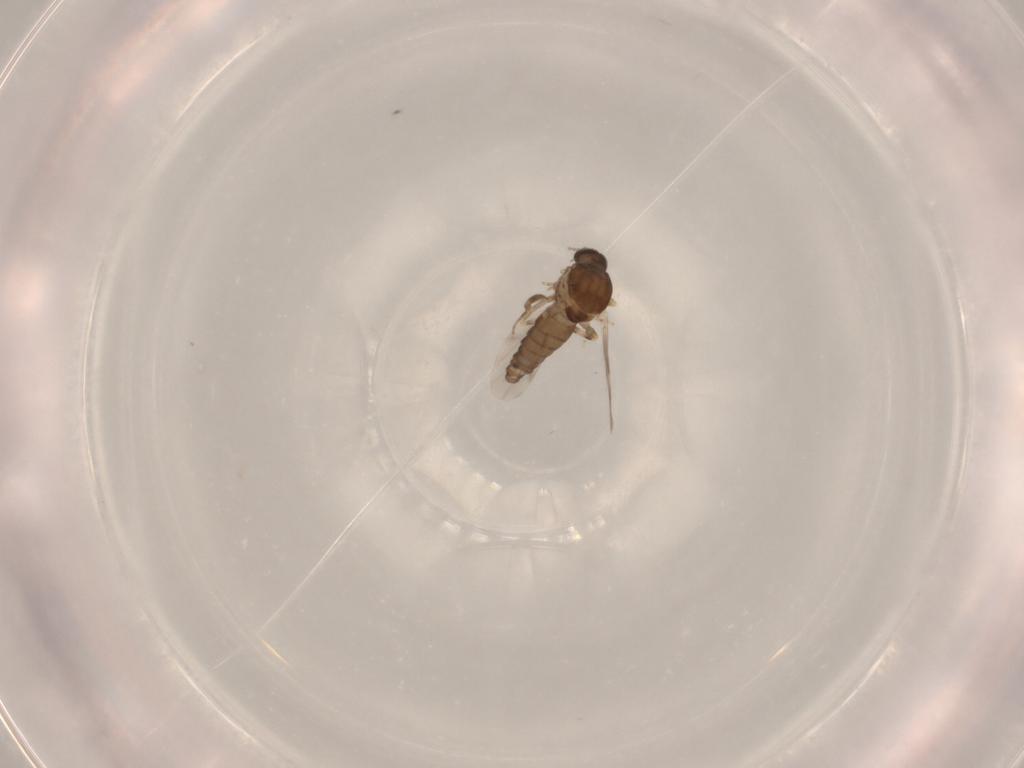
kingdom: Animalia
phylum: Arthropoda
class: Insecta
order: Diptera
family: Ceratopogonidae
